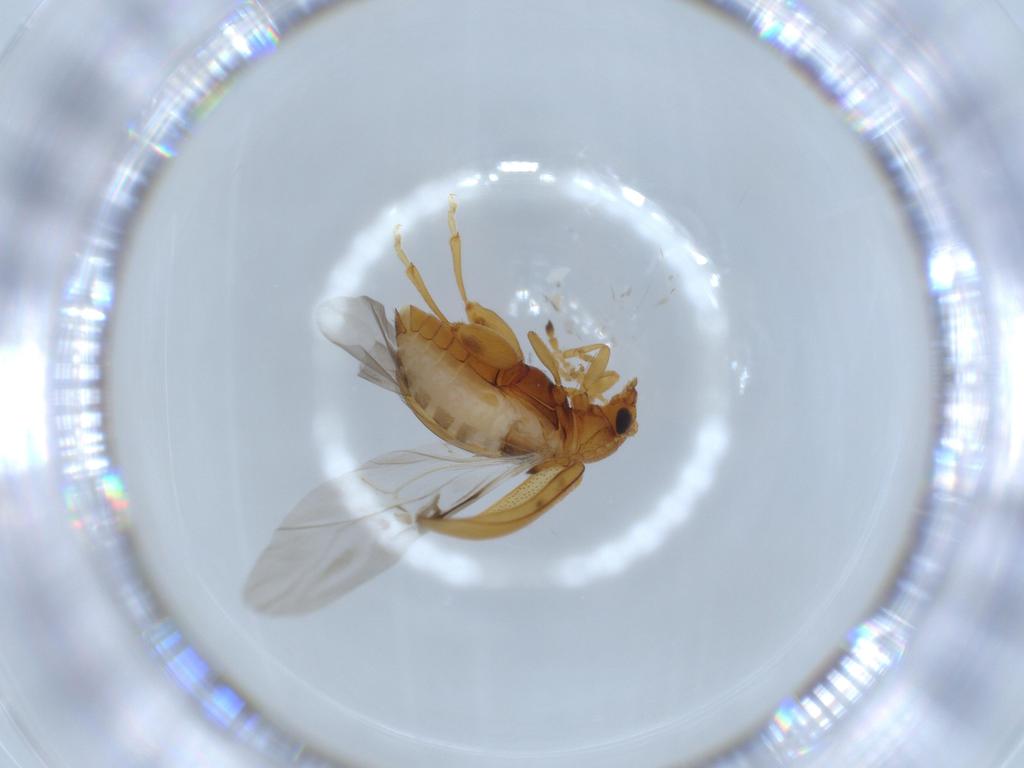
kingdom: Animalia
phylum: Arthropoda
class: Insecta
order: Coleoptera
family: Chrysomelidae
